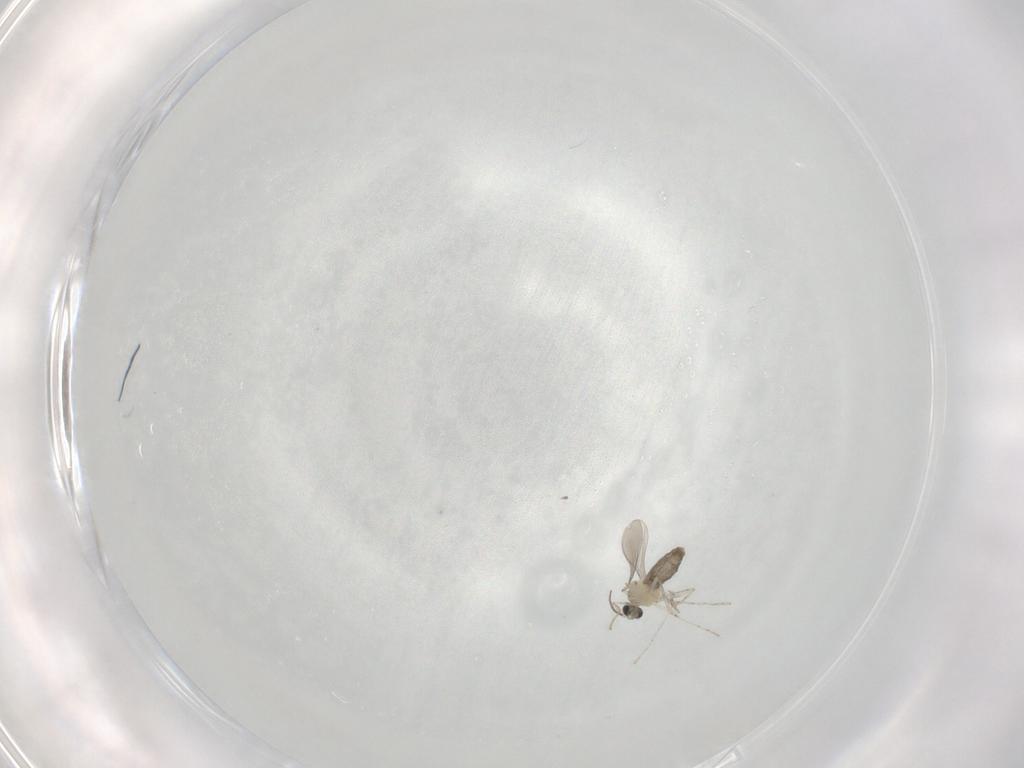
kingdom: Animalia
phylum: Arthropoda
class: Insecta
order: Diptera
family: Cecidomyiidae
